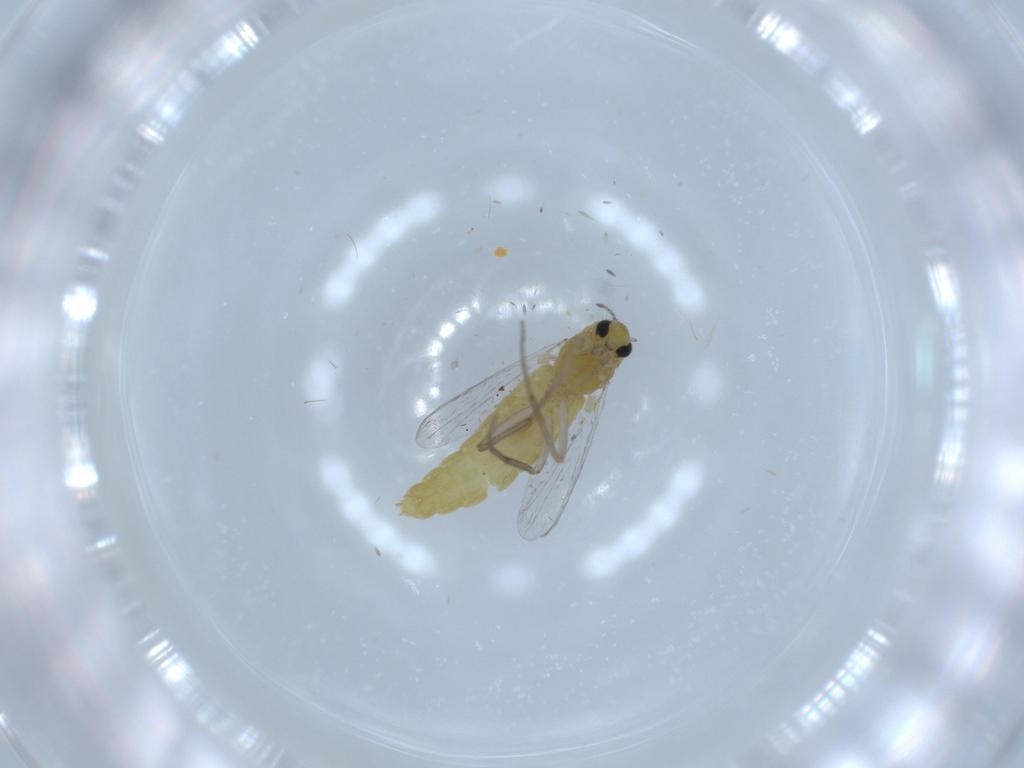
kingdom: Animalia
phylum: Arthropoda
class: Insecta
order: Diptera
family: Chironomidae
